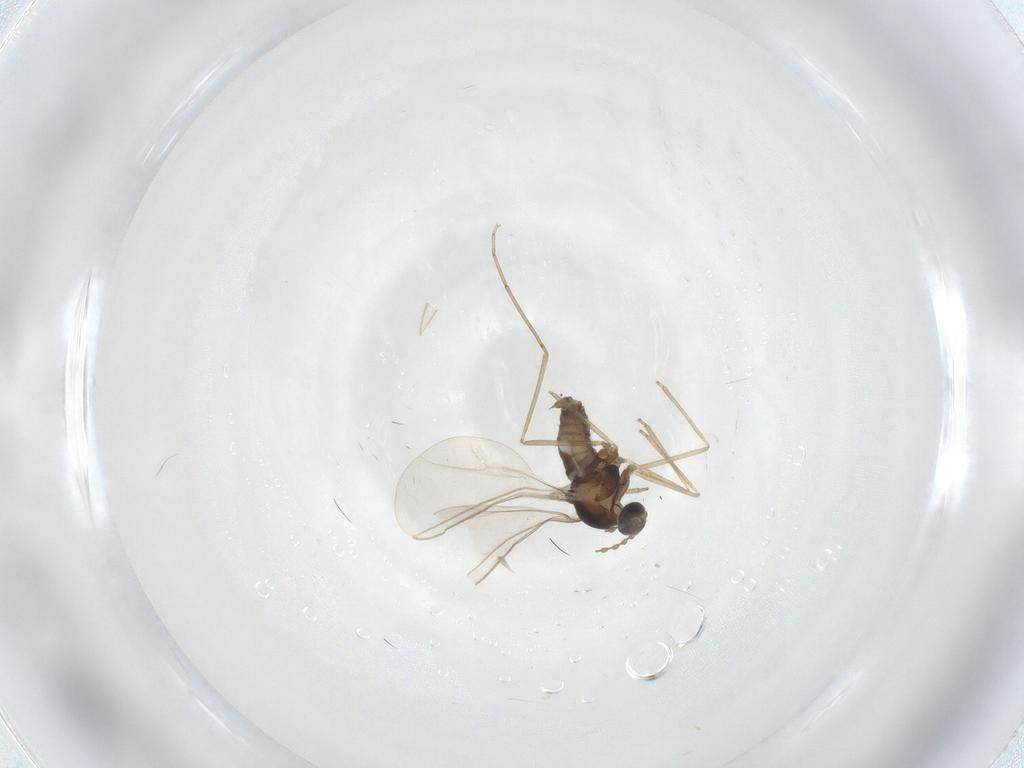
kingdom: Animalia
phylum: Arthropoda
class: Insecta
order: Diptera
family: Cecidomyiidae
